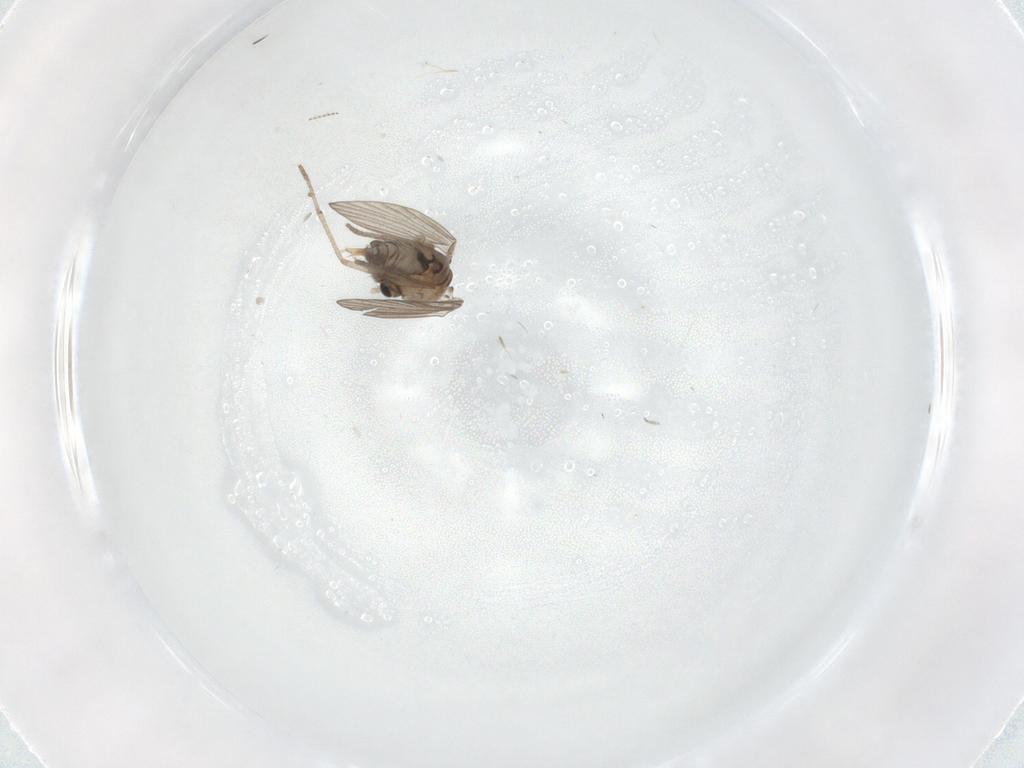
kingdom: Animalia
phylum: Arthropoda
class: Insecta
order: Diptera
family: Psychodidae
